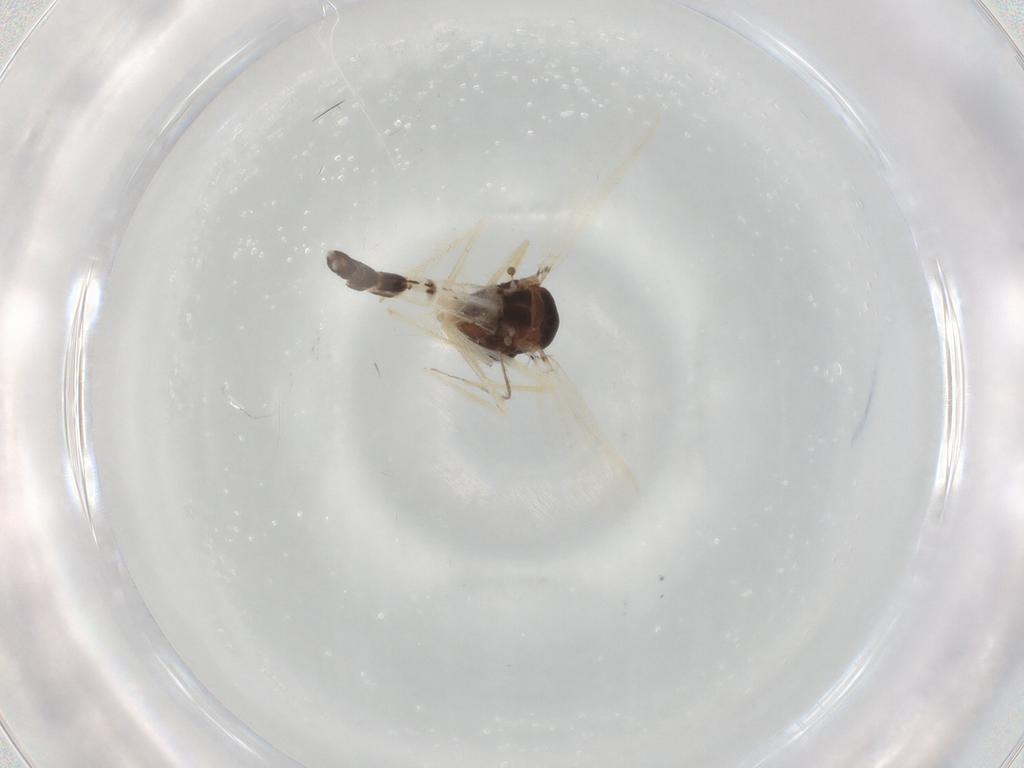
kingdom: Animalia
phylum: Arthropoda
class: Insecta
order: Diptera
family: Chironomidae
